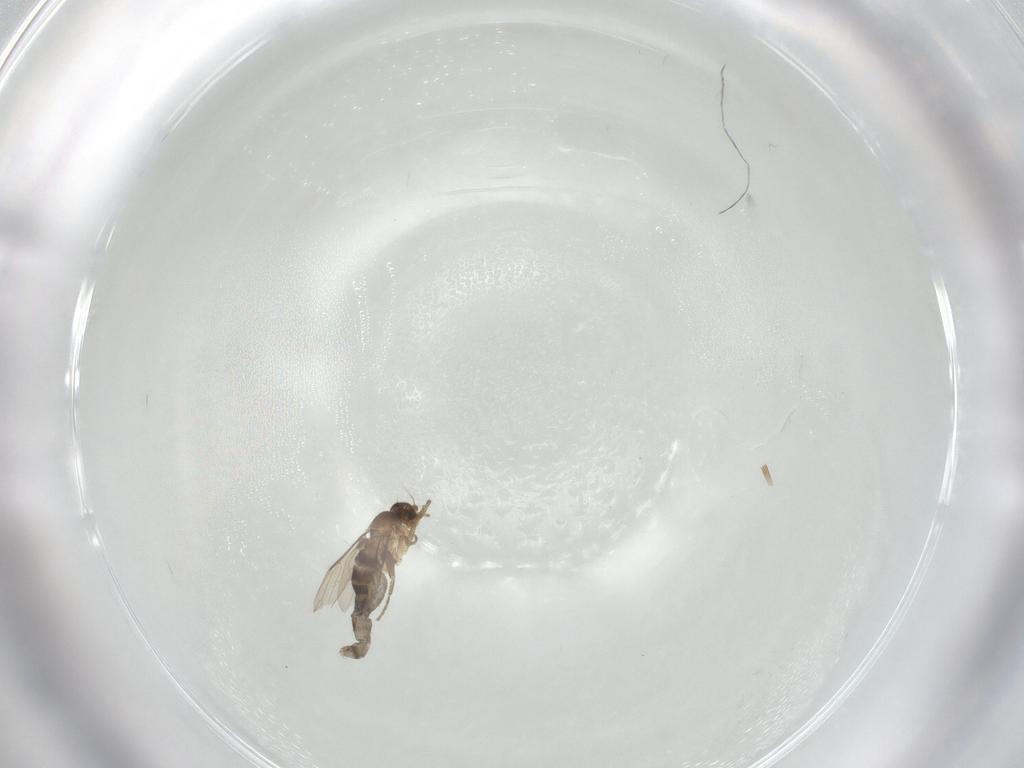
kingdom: Animalia
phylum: Arthropoda
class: Insecta
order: Diptera
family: Phoridae
